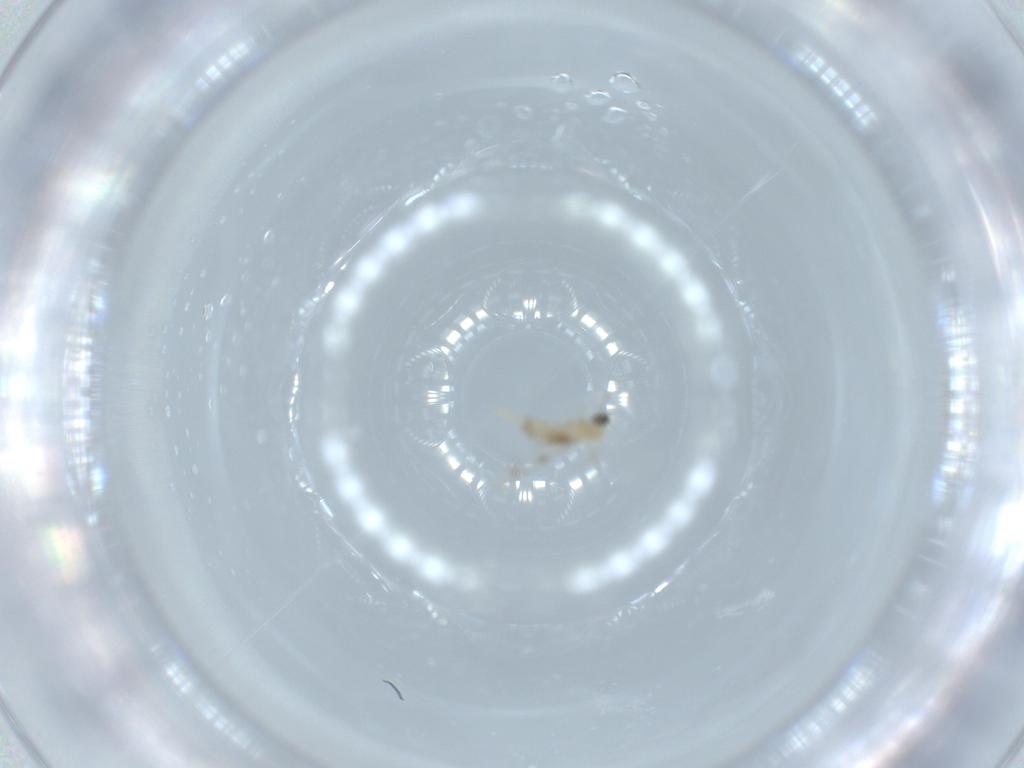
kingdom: Animalia
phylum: Arthropoda
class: Insecta
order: Diptera
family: Cecidomyiidae
